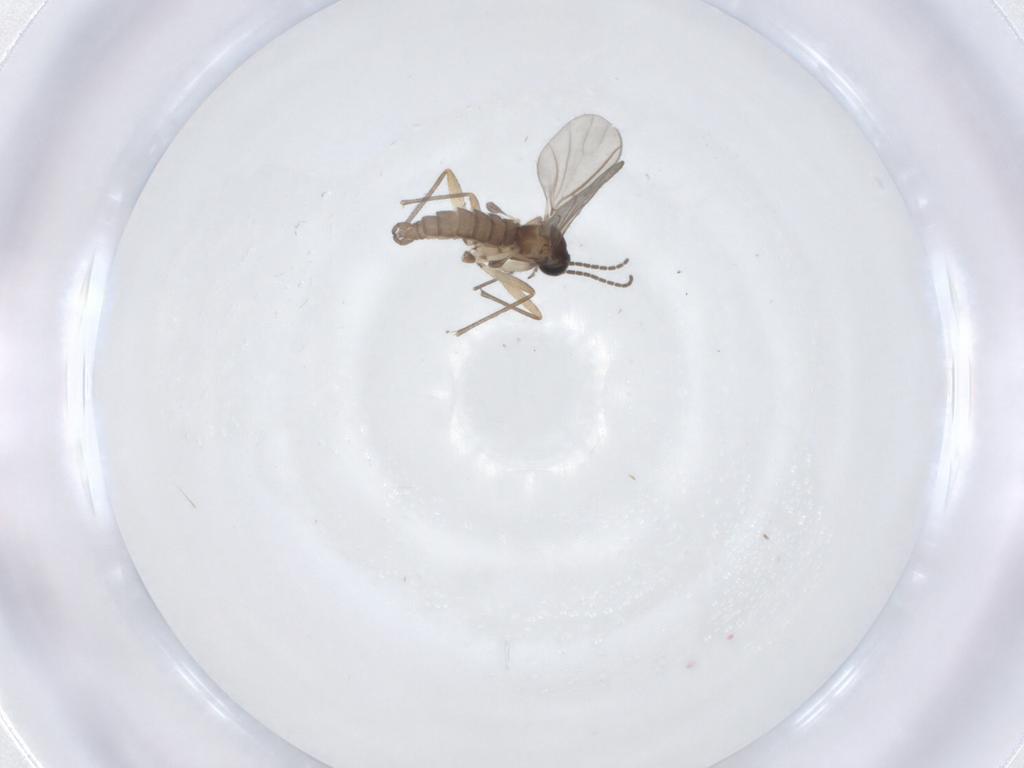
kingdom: Animalia
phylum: Arthropoda
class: Insecta
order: Diptera
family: Sciaridae
